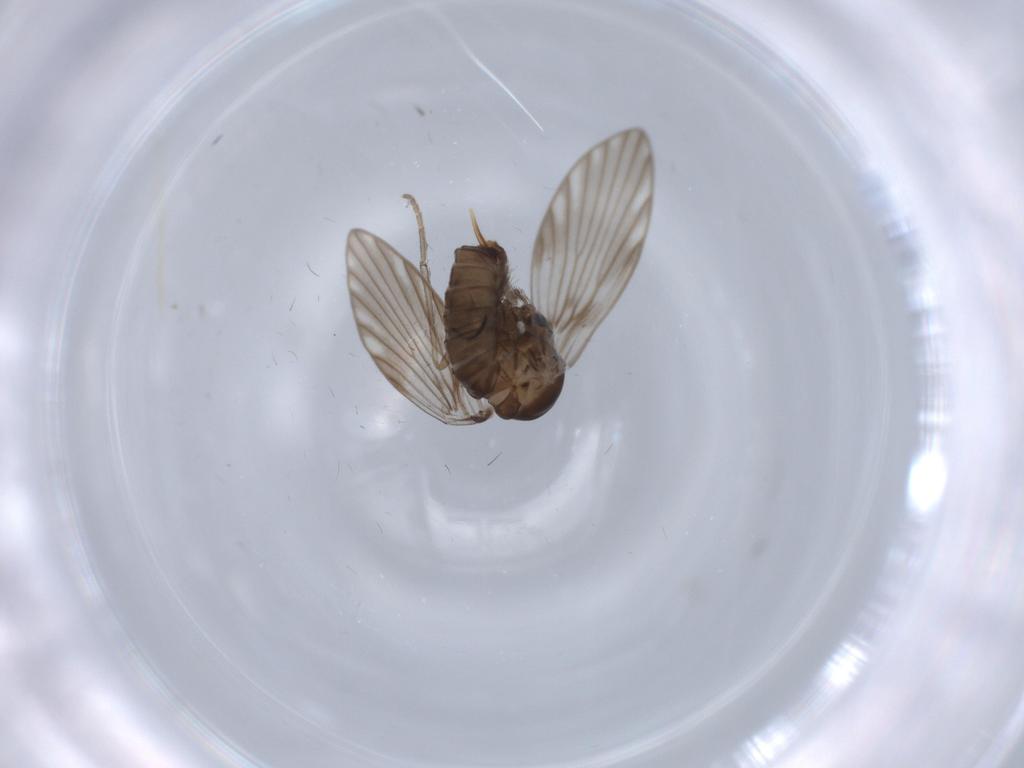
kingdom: Animalia
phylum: Arthropoda
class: Insecta
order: Diptera
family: Psychodidae
